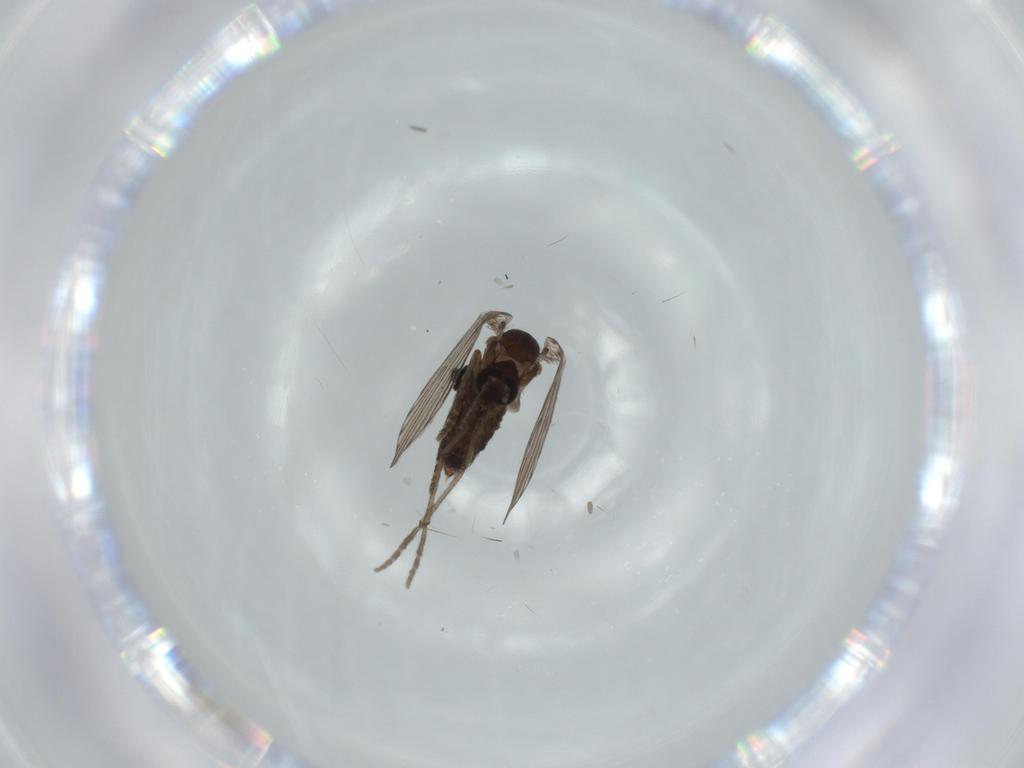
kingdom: Animalia
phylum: Arthropoda
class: Insecta
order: Diptera
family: Psychodidae
